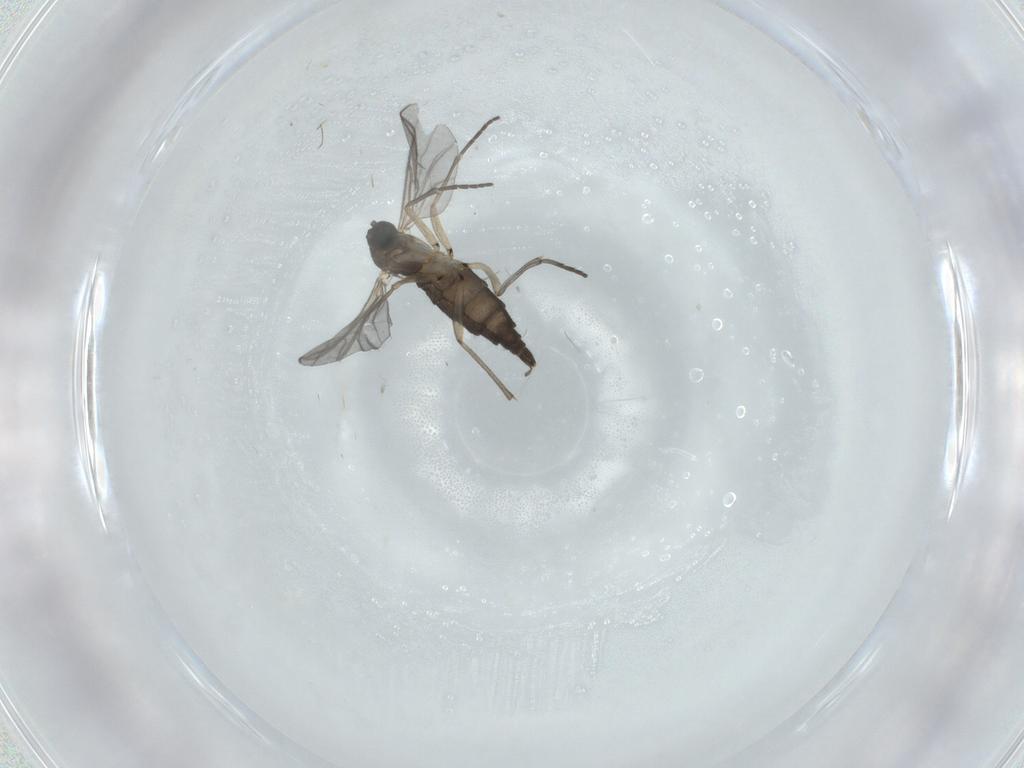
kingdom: Animalia
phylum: Arthropoda
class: Insecta
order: Diptera
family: Sciaridae
